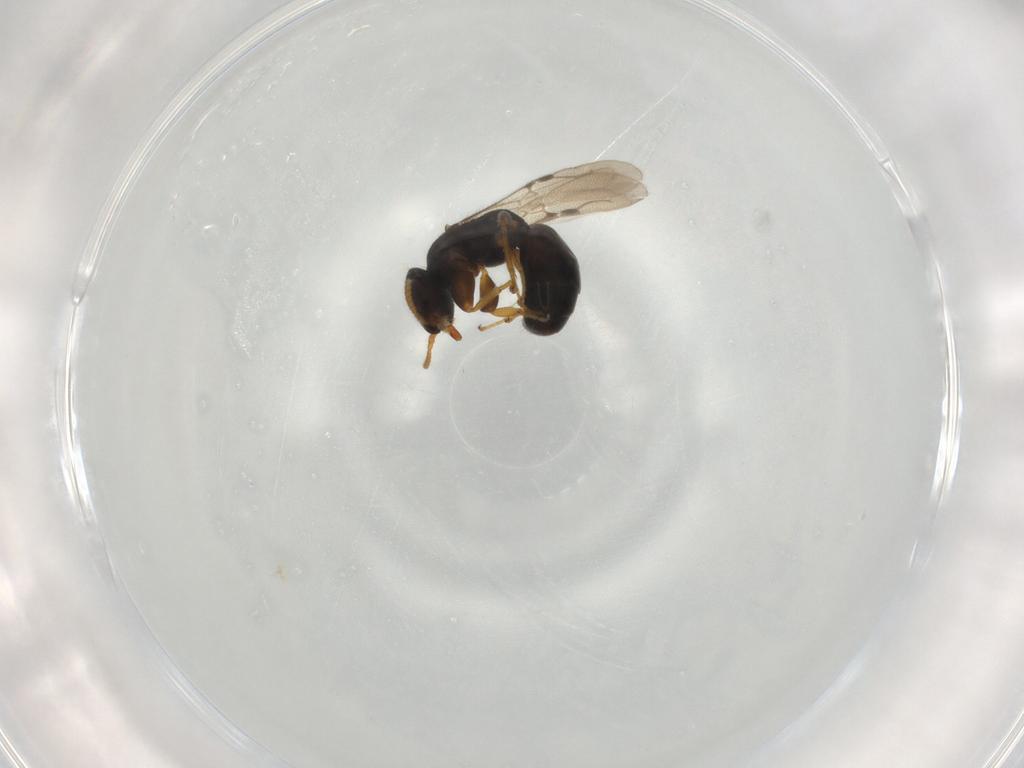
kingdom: Animalia
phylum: Arthropoda
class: Insecta
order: Hymenoptera
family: Bethylidae
